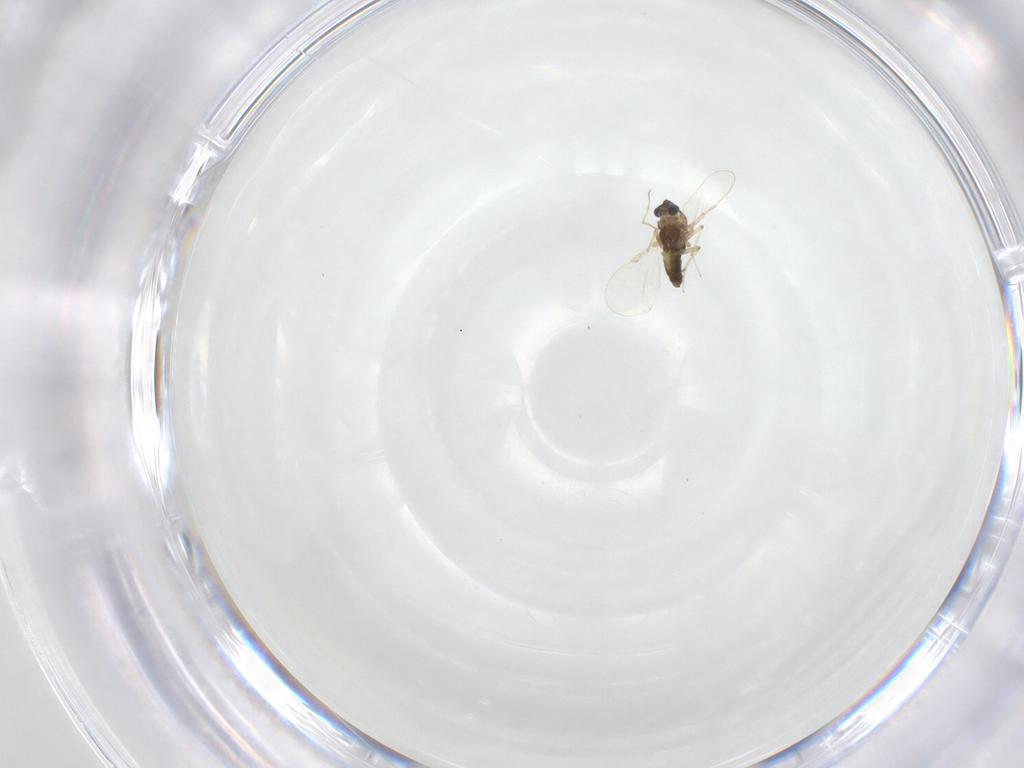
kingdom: Animalia
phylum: Arthropoda
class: Insecta
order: Diptera
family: Chironomidae
